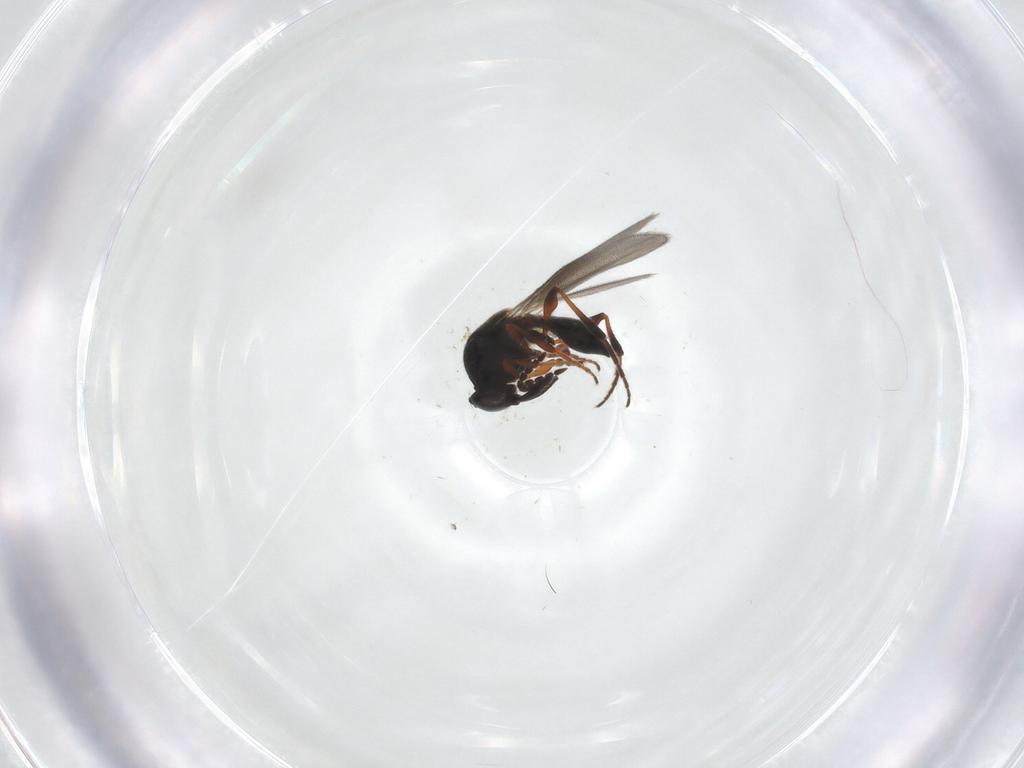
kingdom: Animalia
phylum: Arthropoda
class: Insecta
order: Hymenoptera
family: Platygastridae
